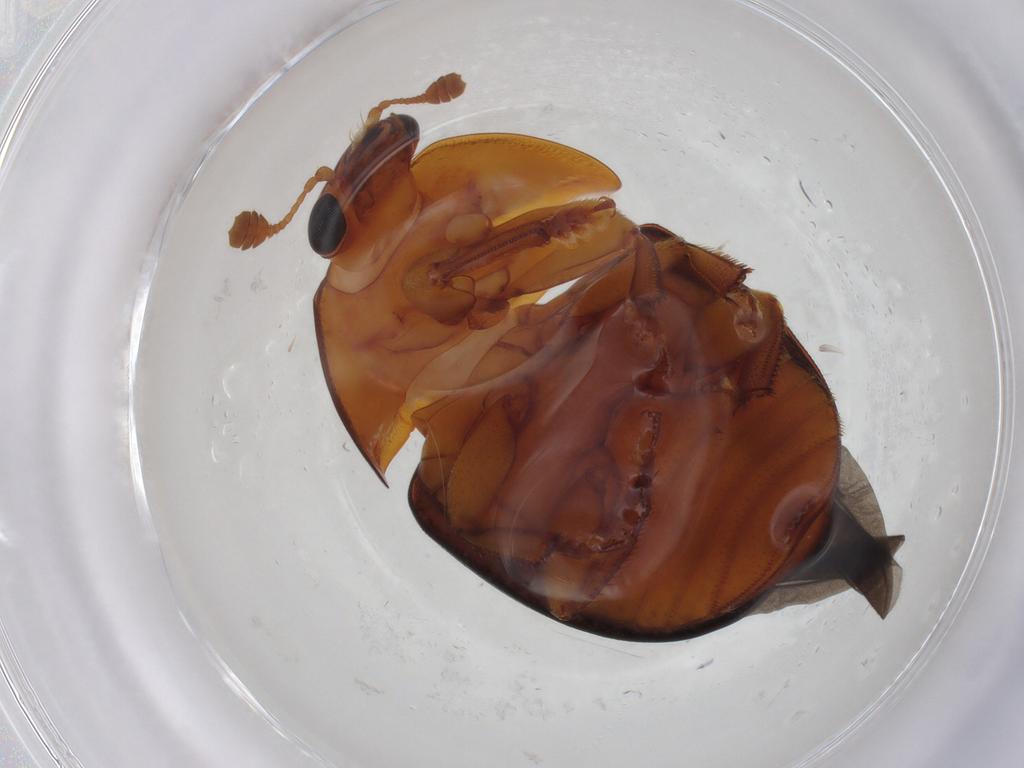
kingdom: Animalia
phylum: Arthropoda
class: Insecta
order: Coleoptera
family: Nitidulidae
